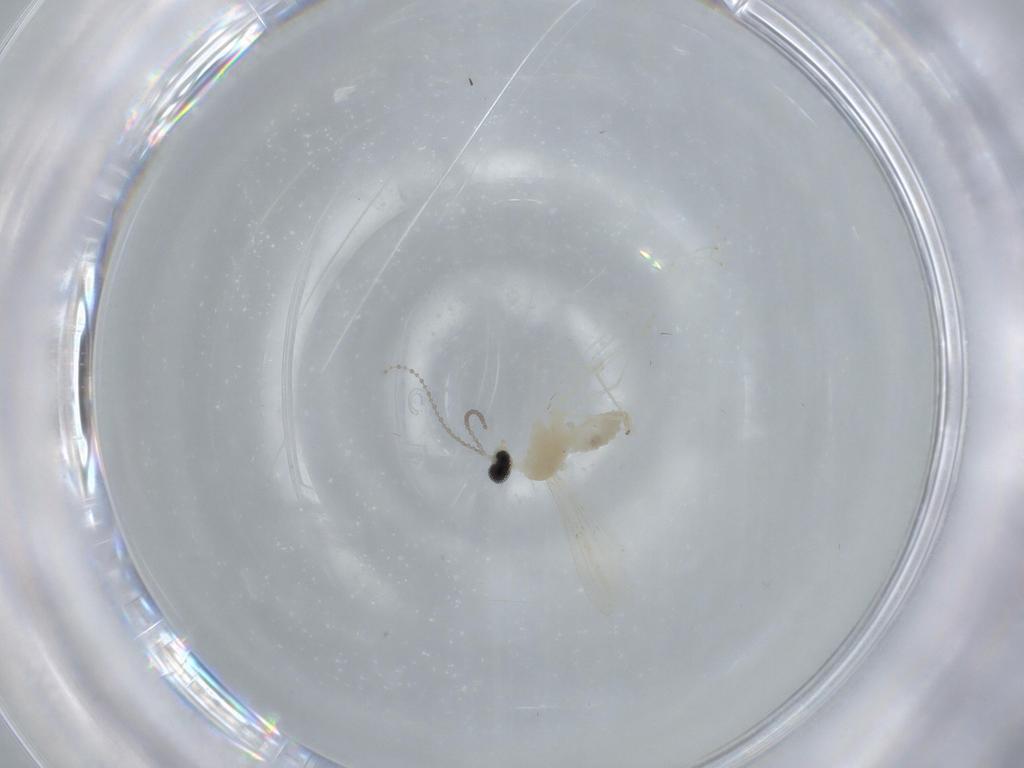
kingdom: Animalia
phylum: Arthropoda
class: Insecta
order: Diptera
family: Cecidomyiidae
